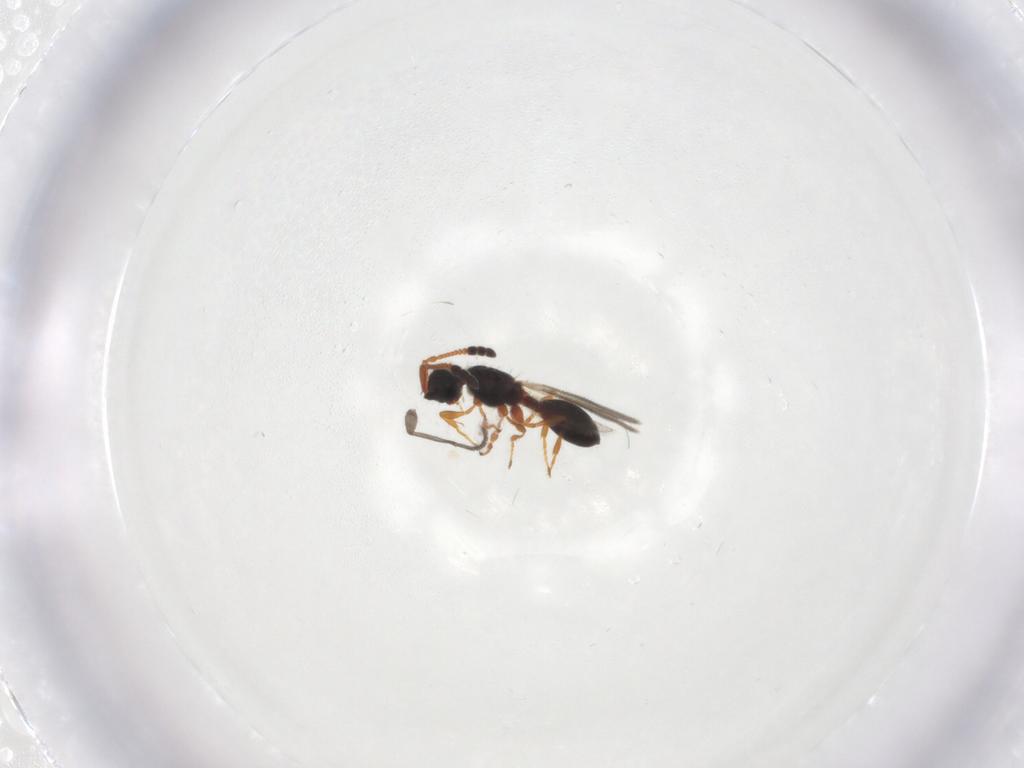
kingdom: Animalia
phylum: Arthropoda
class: Insecta
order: Hymenoptera
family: Diapriidae
